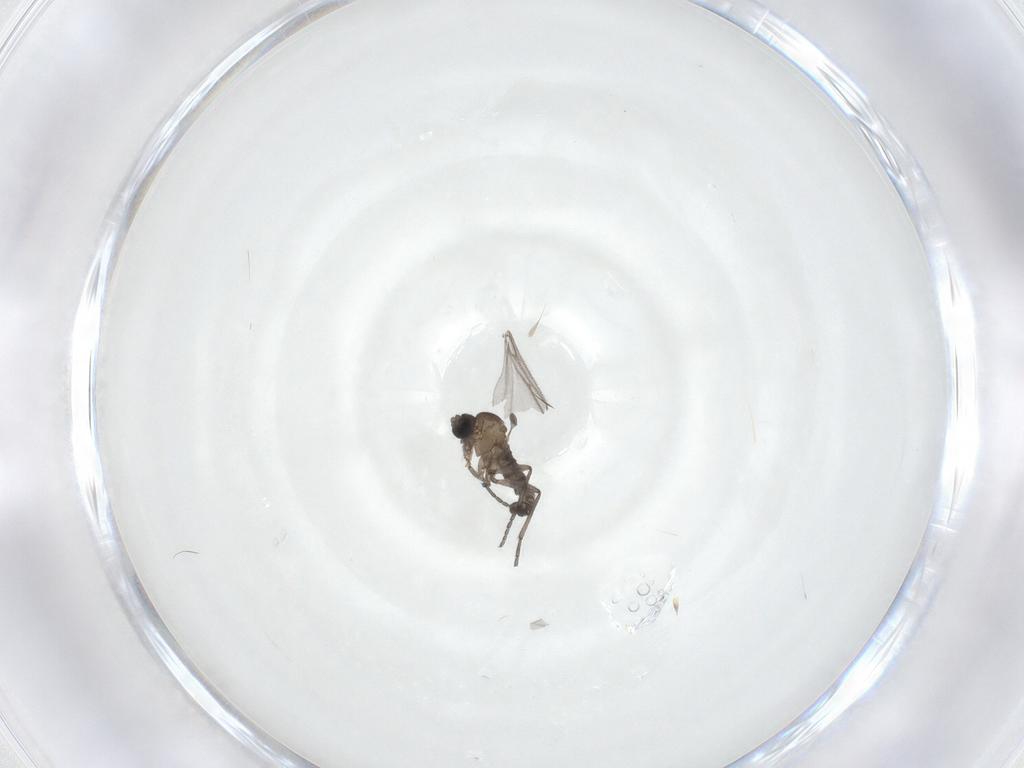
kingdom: Animalia
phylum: Arthropoda
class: Insecta
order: Diptera
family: Sciaridae
